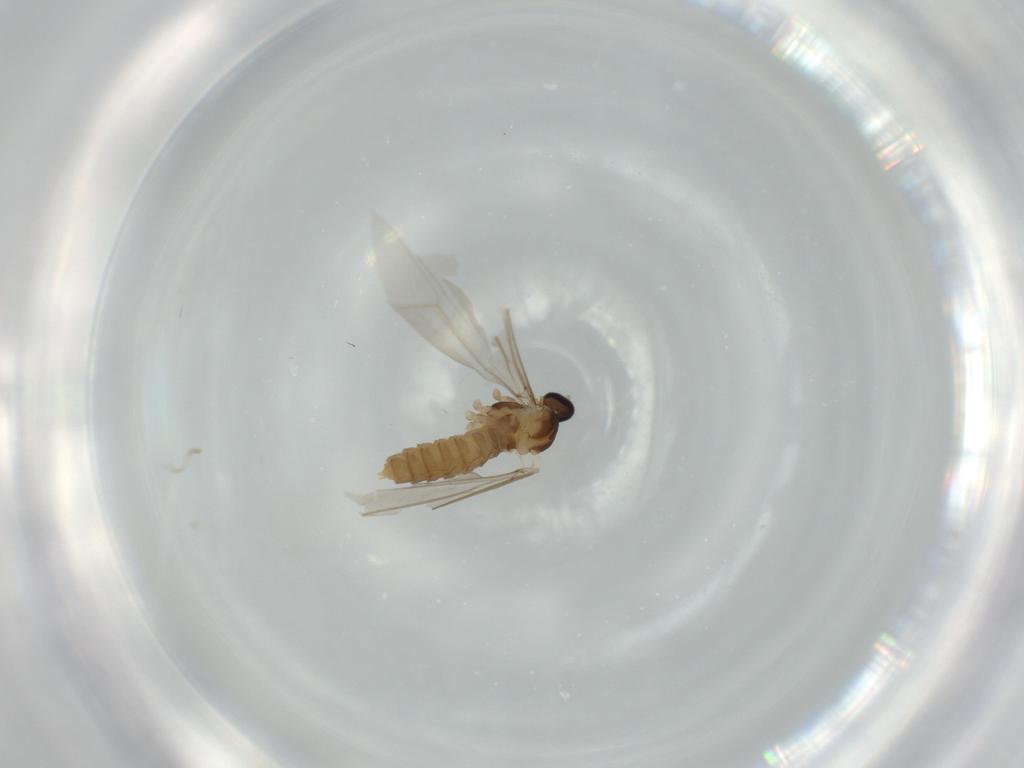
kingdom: Animalia
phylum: Arthropoda
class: Insecta
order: Diptera
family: Cecidomyiidae
